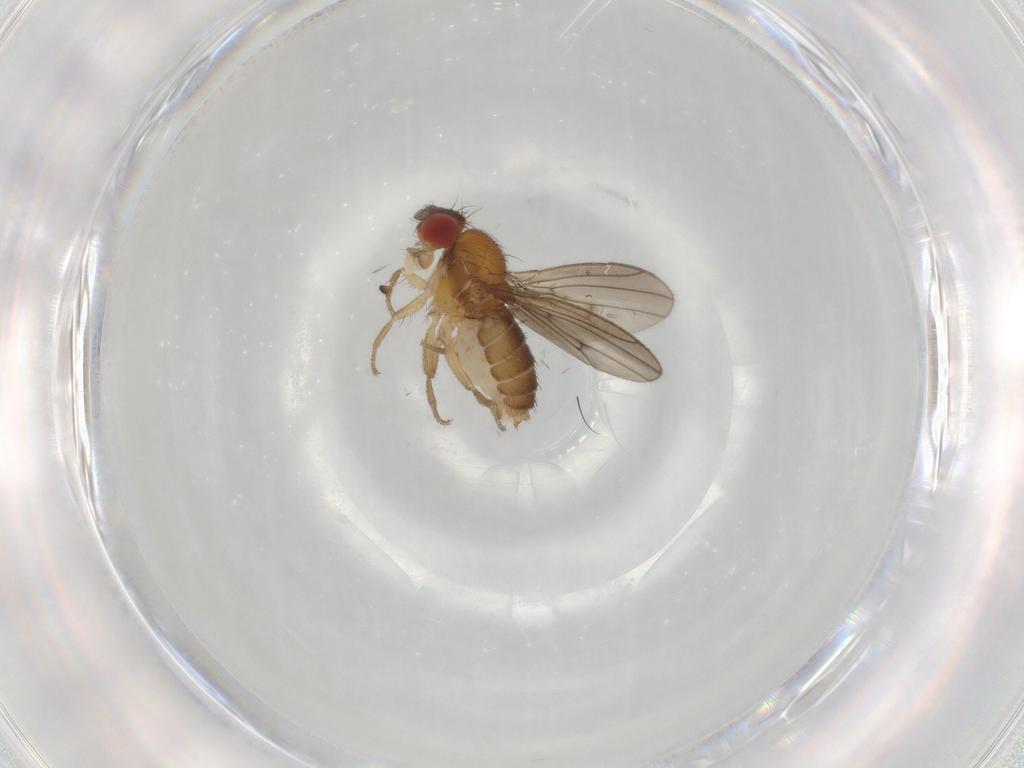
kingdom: Animalia
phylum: Arthropoda
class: Insecta
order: Diptera
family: Drosophilidae
